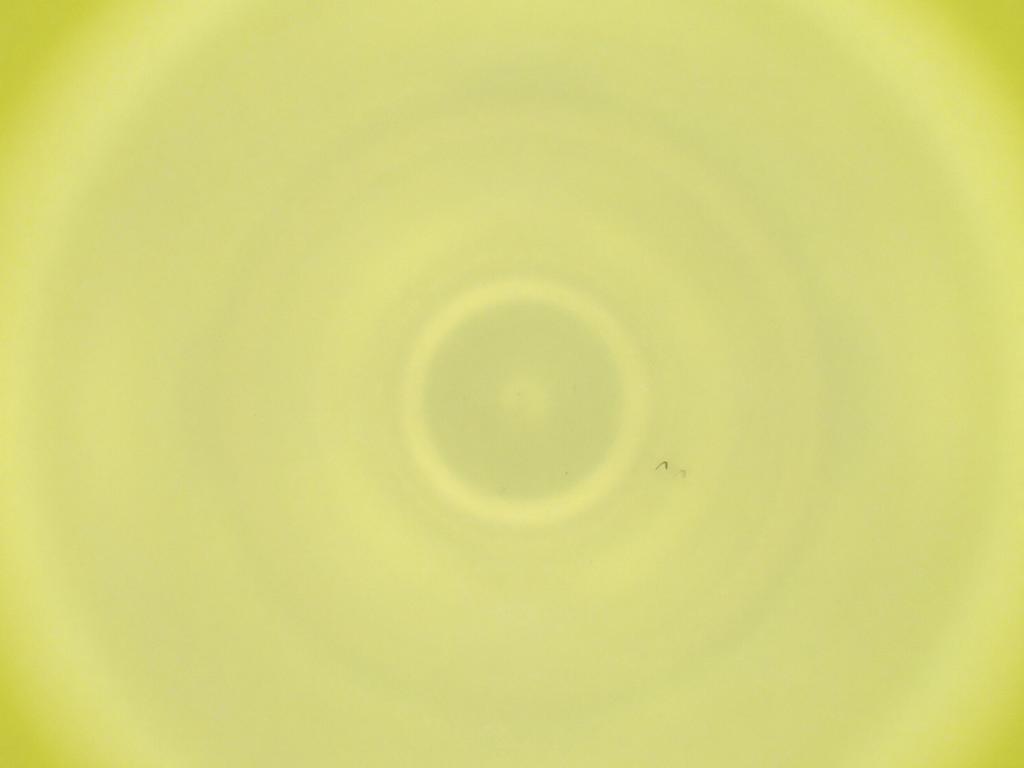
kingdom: Animalia
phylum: Arthropoda
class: Insecta
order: Diptera
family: Cecidomyiidae
